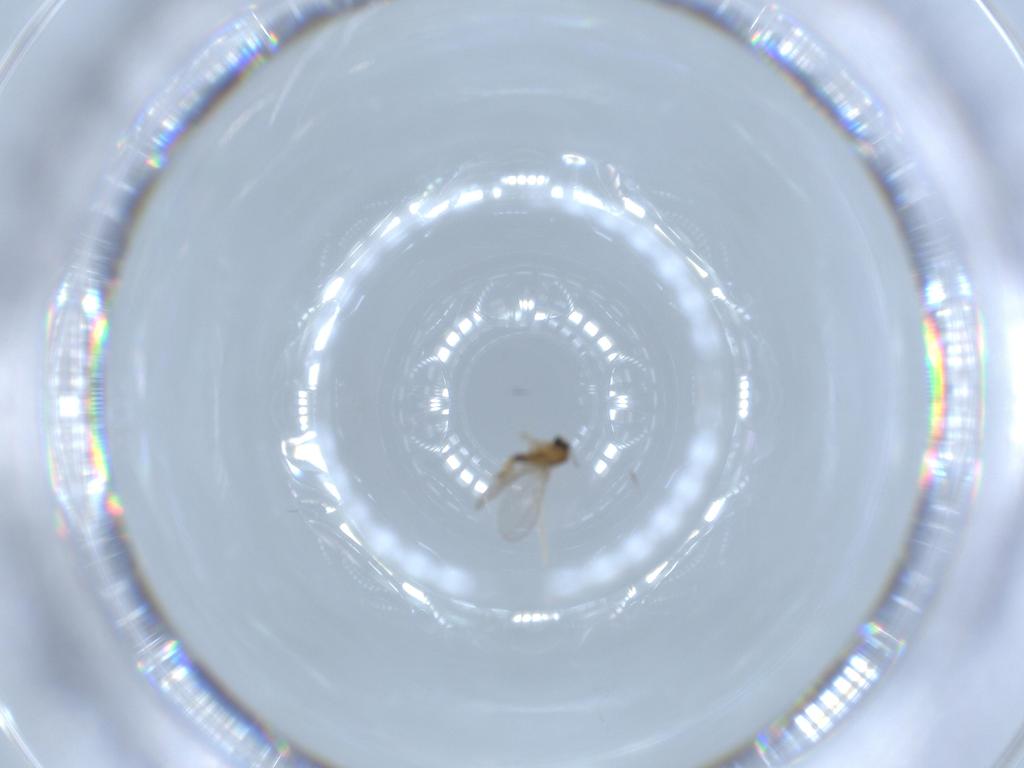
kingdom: Animalia
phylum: Arthropoda
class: Insecta
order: Diptera
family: Cecidomyiidae
